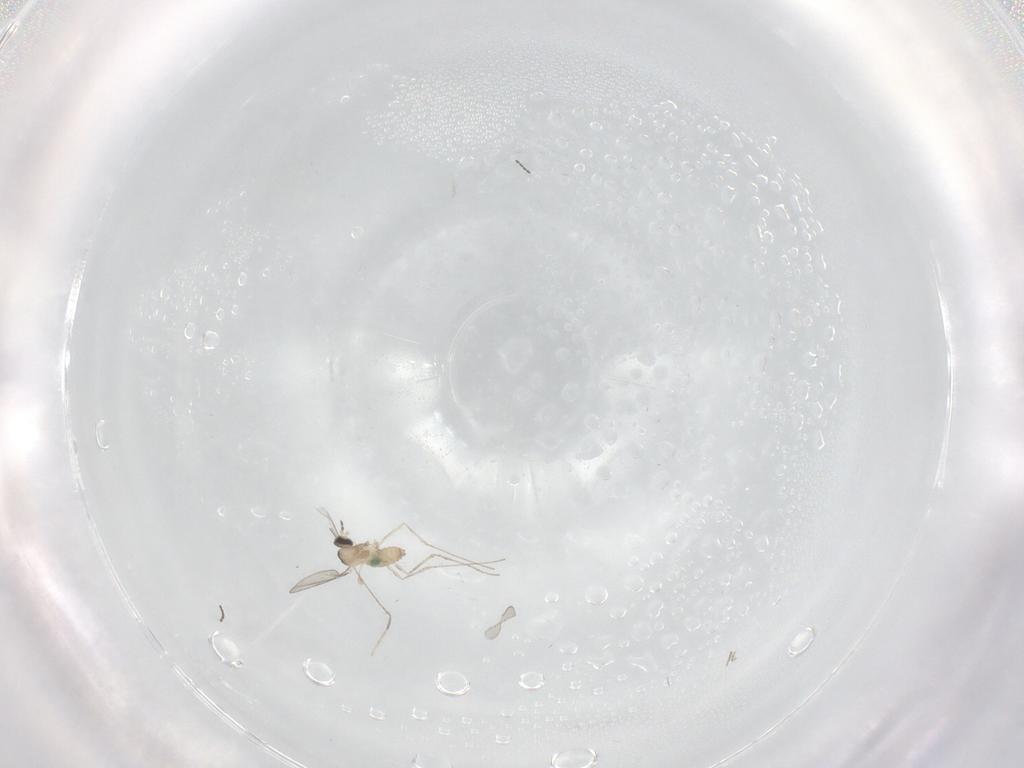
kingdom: Animalia
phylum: Arthropoda
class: Insecta
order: Diptera
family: Cecidomyiidae
